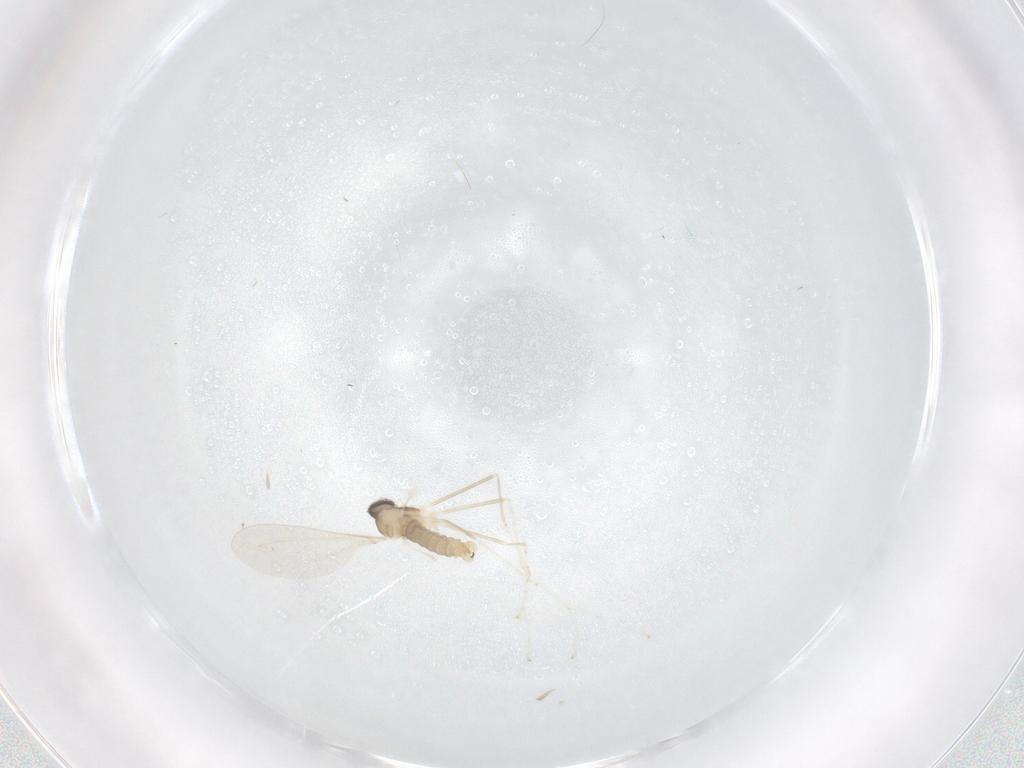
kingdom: Animalia
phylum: Arthropoda
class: Insecta
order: Diptera
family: Cecidomyiidae
